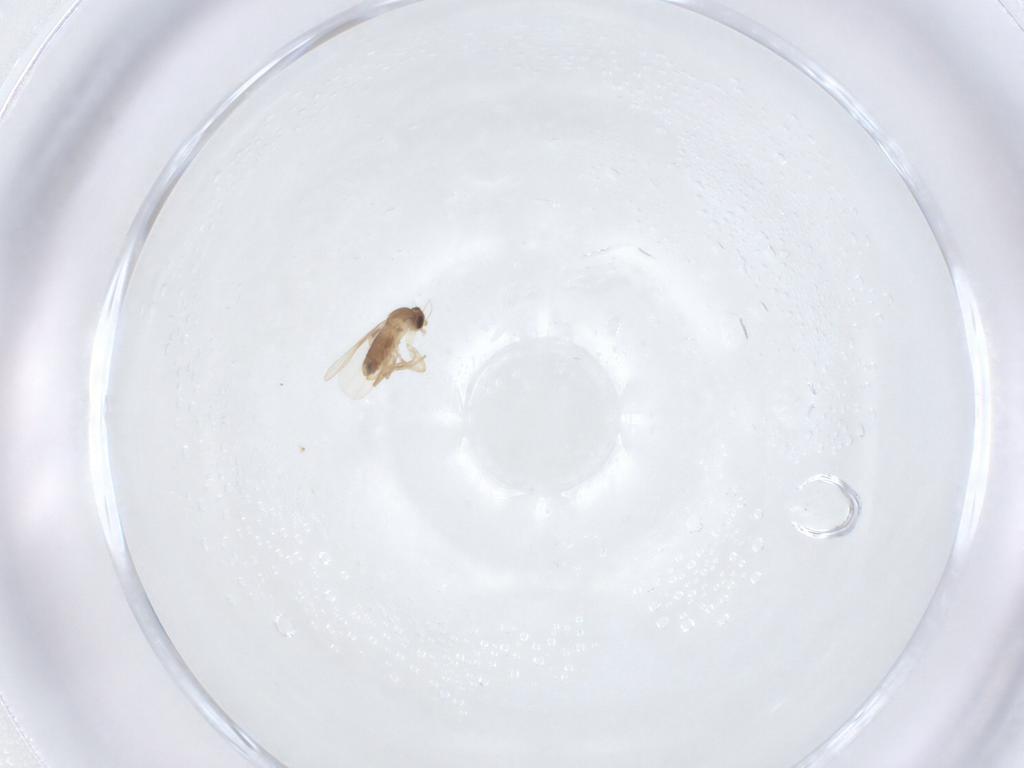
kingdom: Animalia
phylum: Arthropoda
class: Insecta
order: Diptera
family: Phoridae
